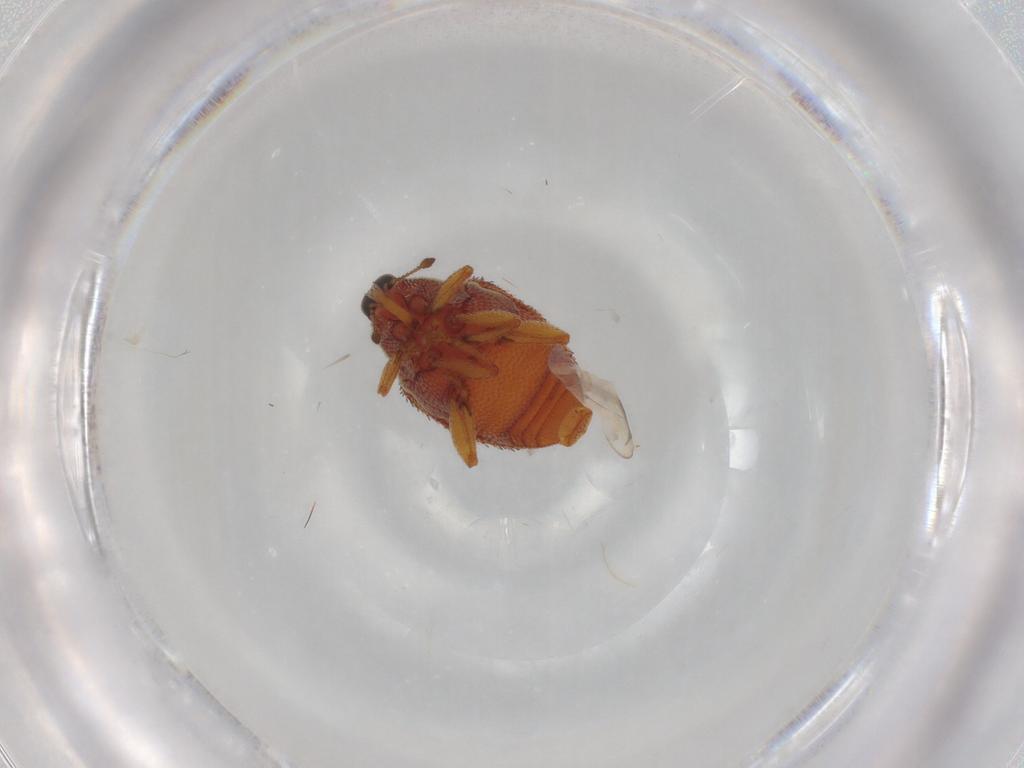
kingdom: Animalia
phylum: Arthropoda
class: Insecta
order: Coleoptera
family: Curculionidae
